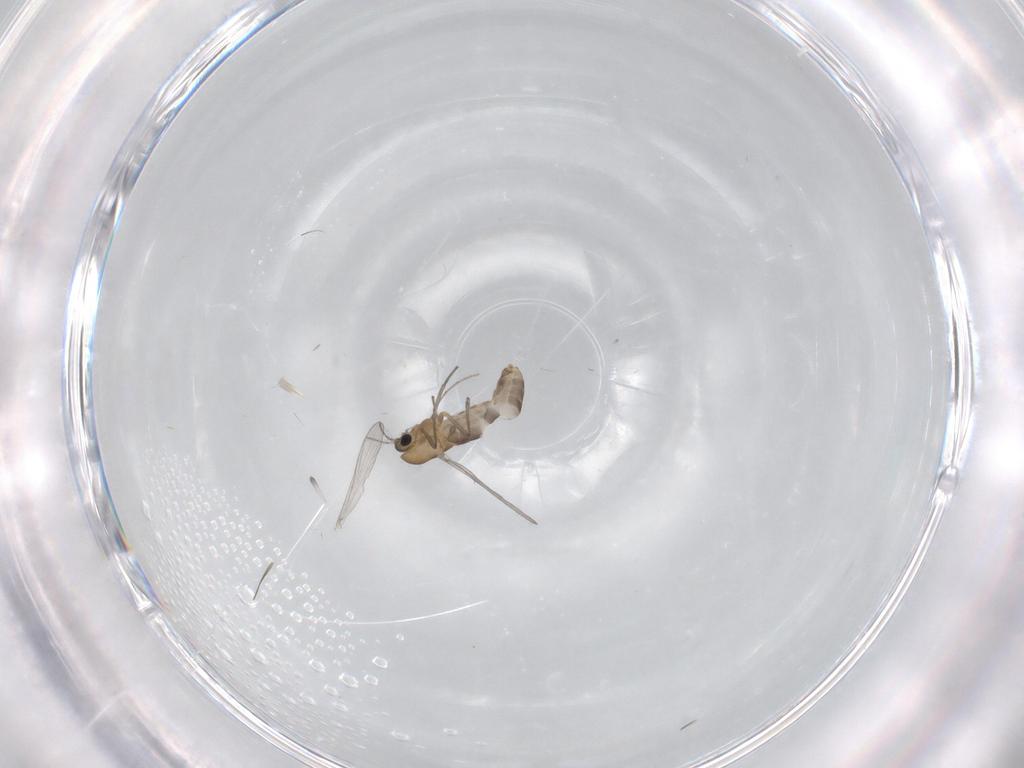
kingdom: Animalia
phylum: Arthropoda
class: Insecta
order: Diptera
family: Chironomidae
